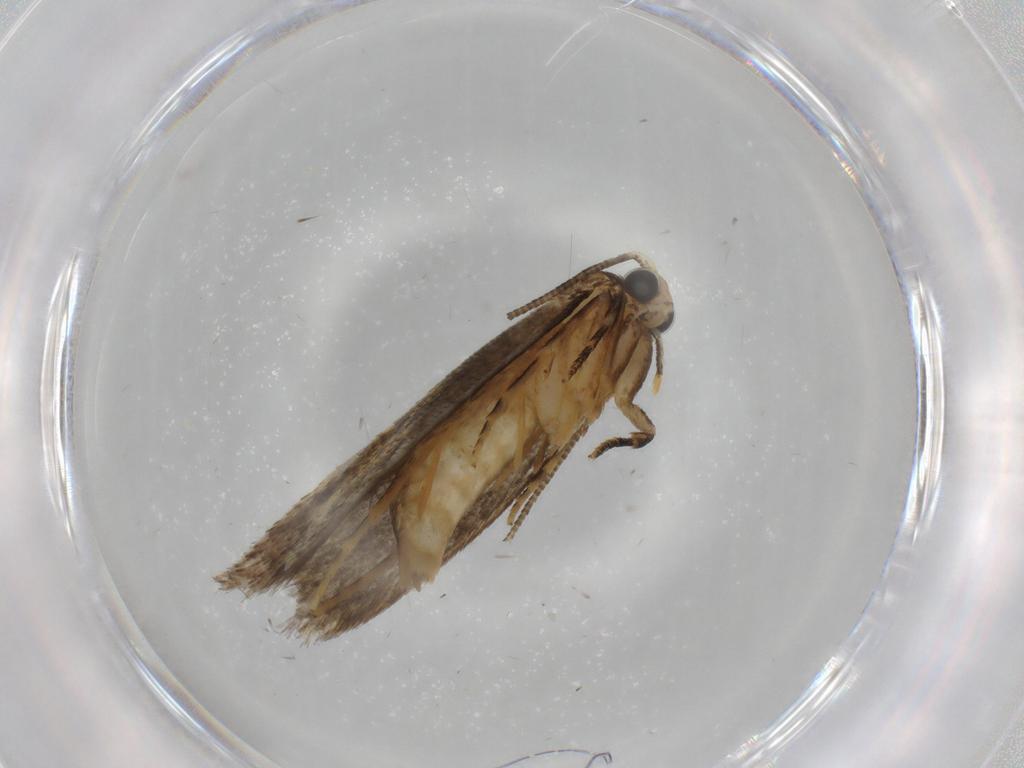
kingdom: Animalia
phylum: Arthropoda
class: Insecta
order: Lepidoptera
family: Tineidae
